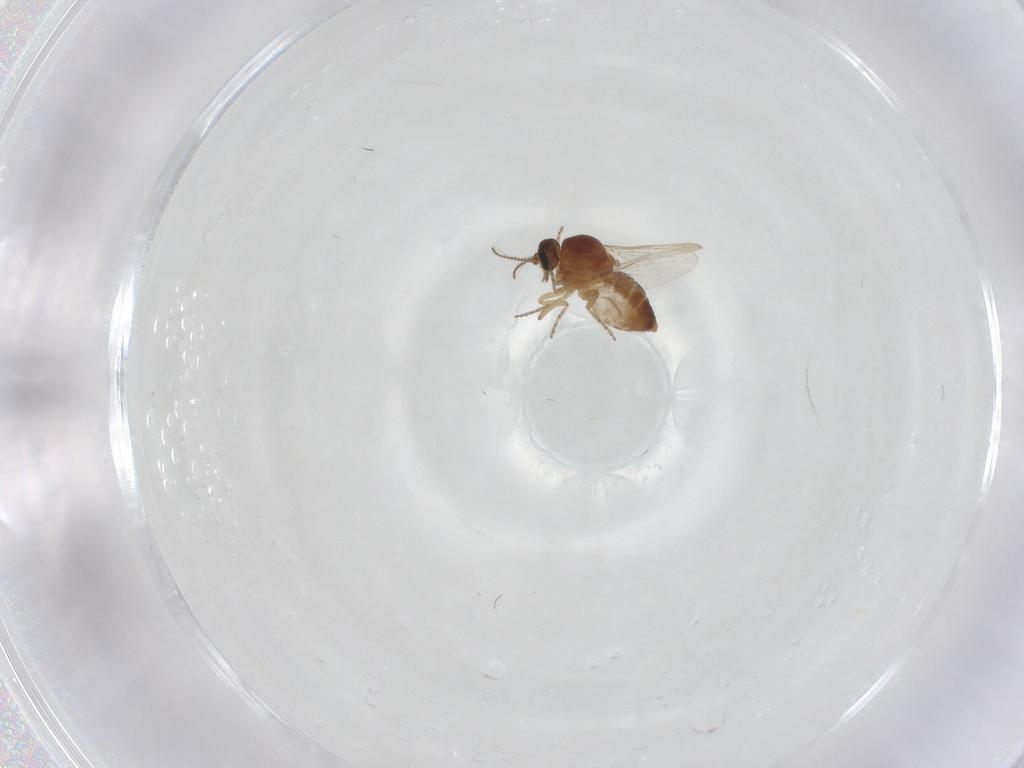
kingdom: Animalia
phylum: Arthropoda
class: Insecta
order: Diptera
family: Ceratopogonidae
